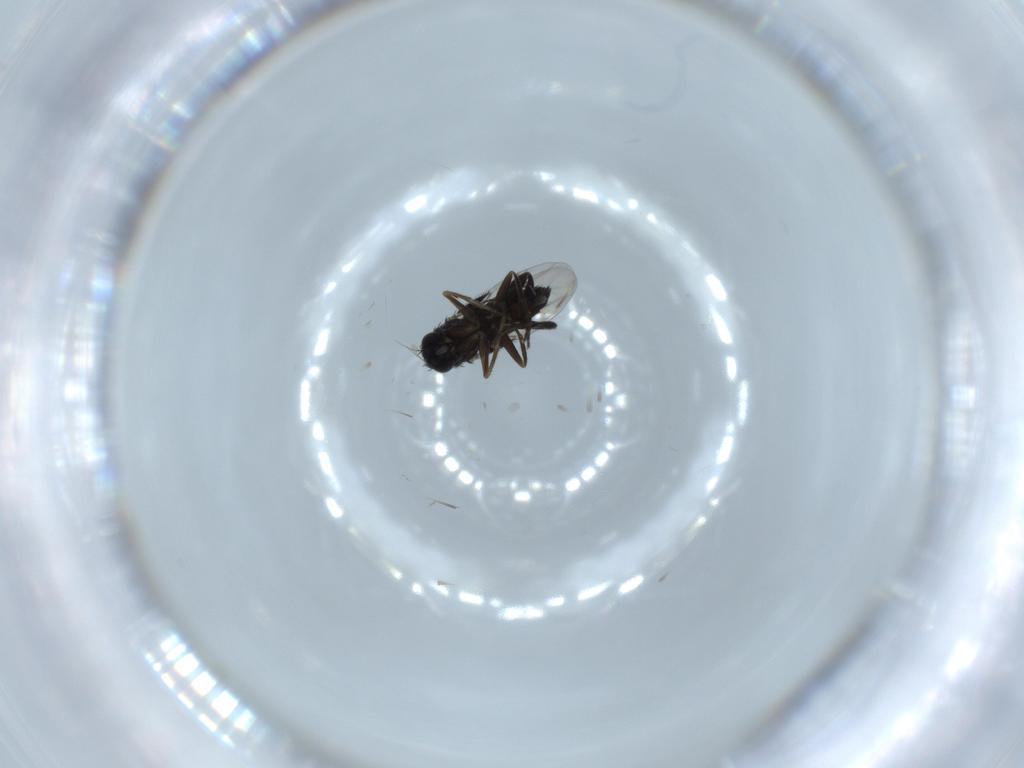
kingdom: Animalia
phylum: Arthropoda
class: Insecta
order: Diptera
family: Phoridae
